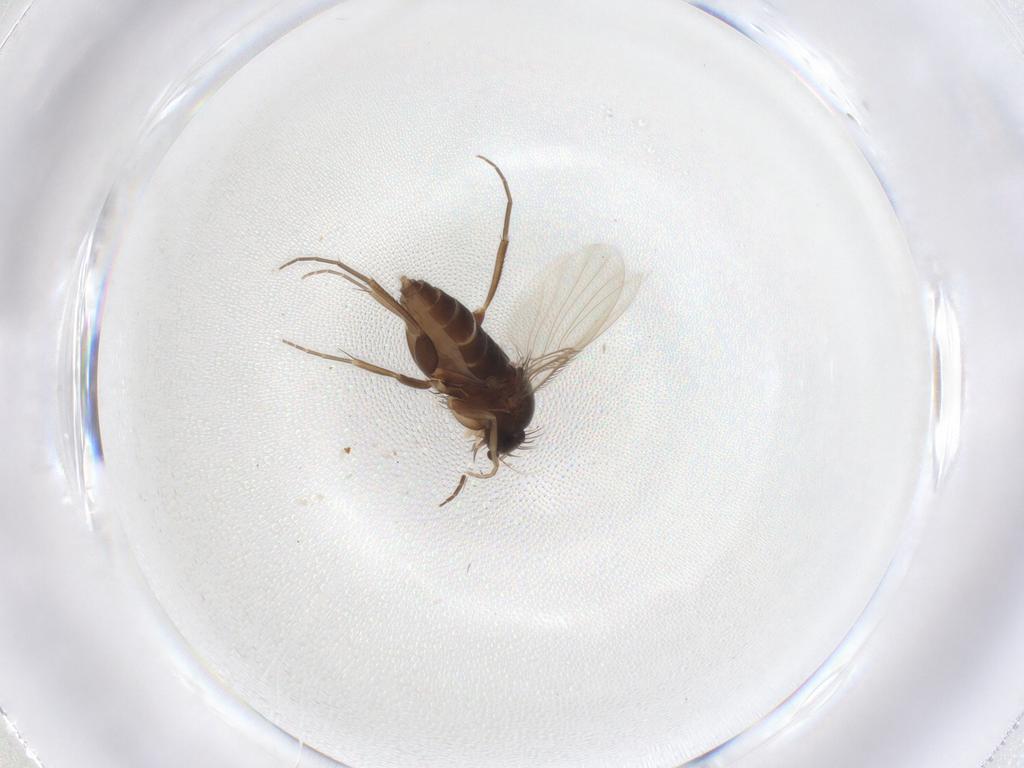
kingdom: Animalia
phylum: Arthropoda
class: Insecta
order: Diptera
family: Phoridae
